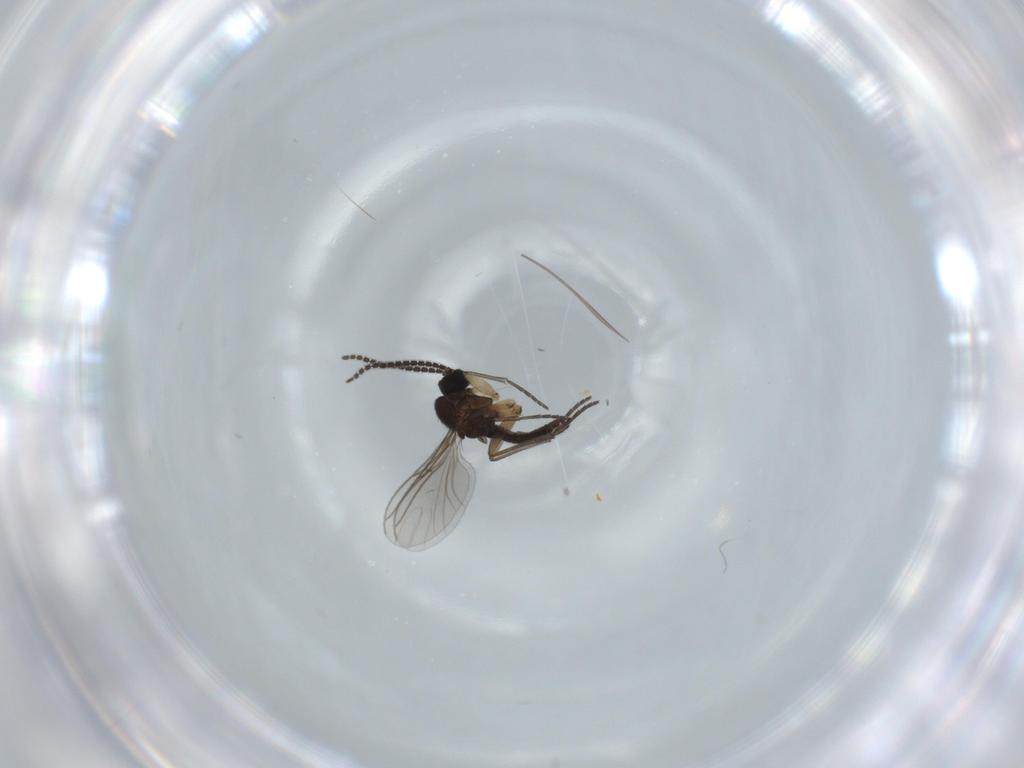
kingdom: Animalia
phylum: Arthropoda
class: Insecta
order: Diptera
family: Sciaridae
